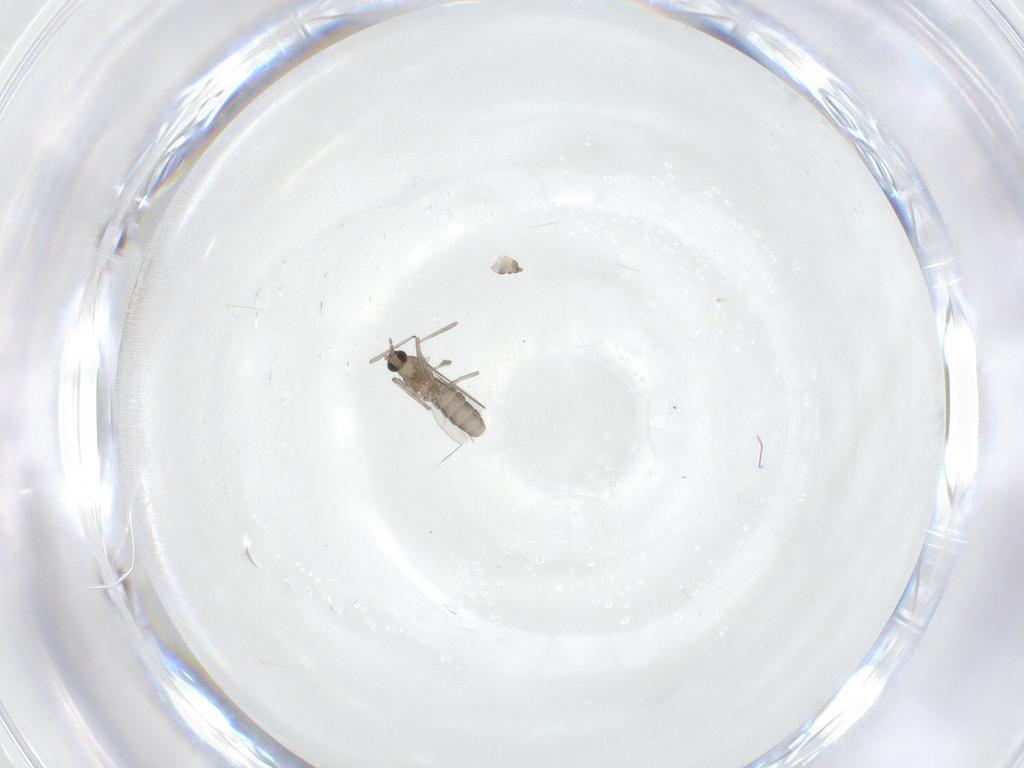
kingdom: Animalia
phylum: Arthropoda
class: Insecta
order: Diptera
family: Cecidomyiidae
